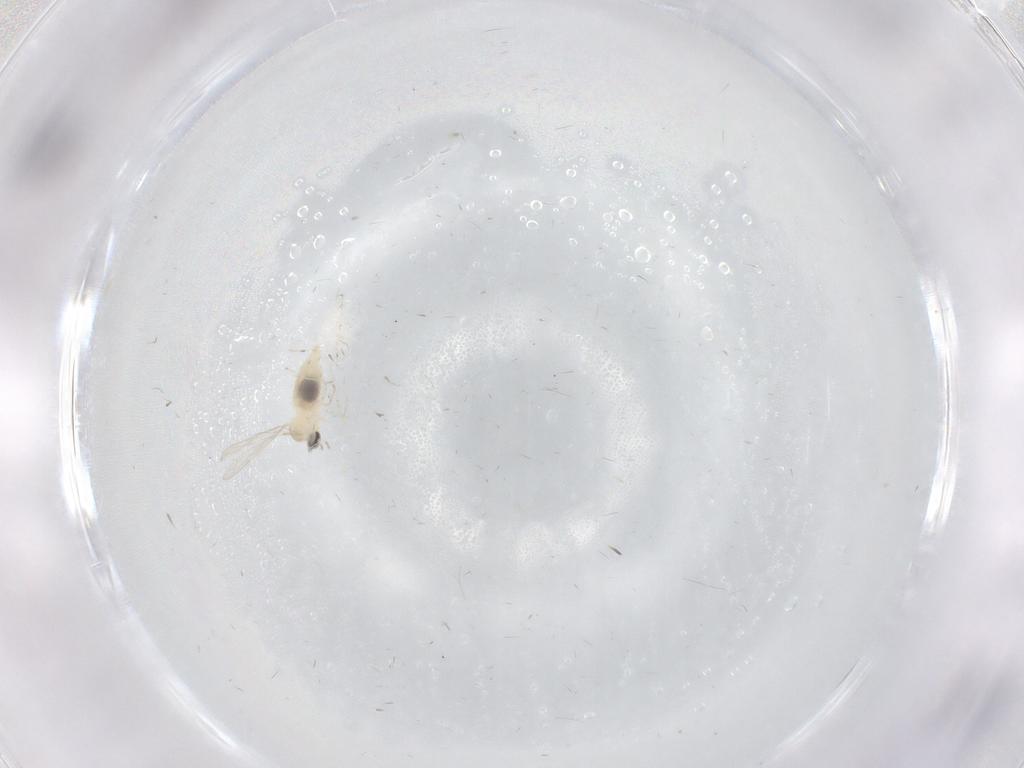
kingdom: Animalia
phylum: Arthropoda
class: Insecta
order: Diptera
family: Cecidomyiidae
